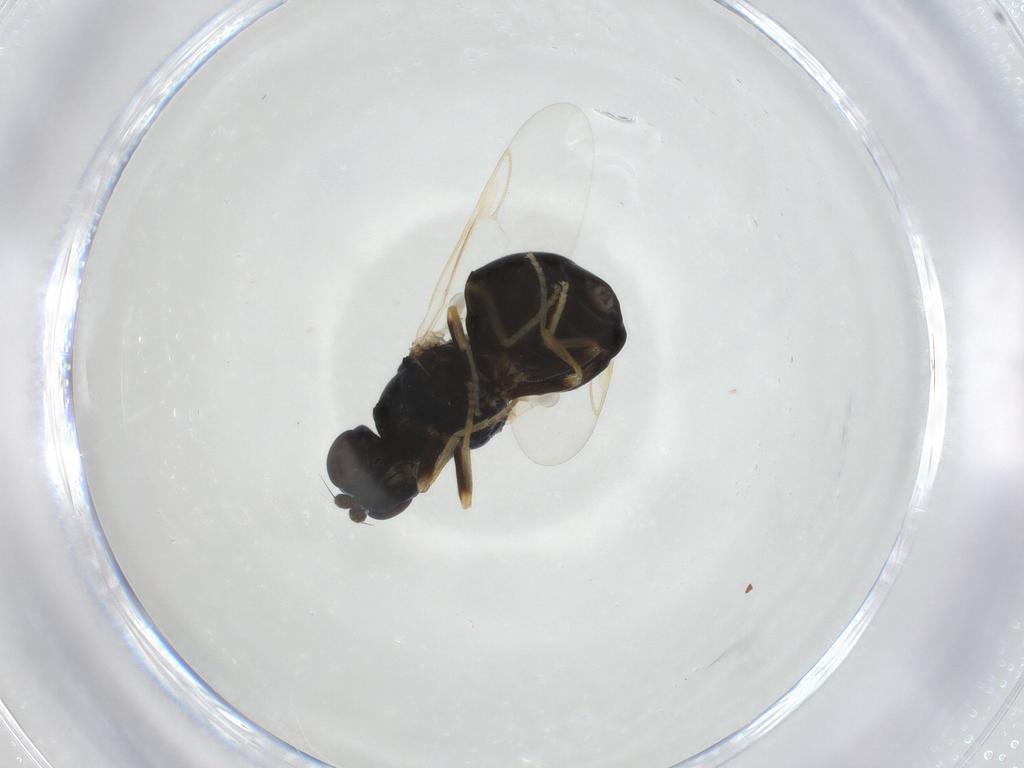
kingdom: Animalia
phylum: Arthropoda
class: Insecta
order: Diptera
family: Stratiomyidae
